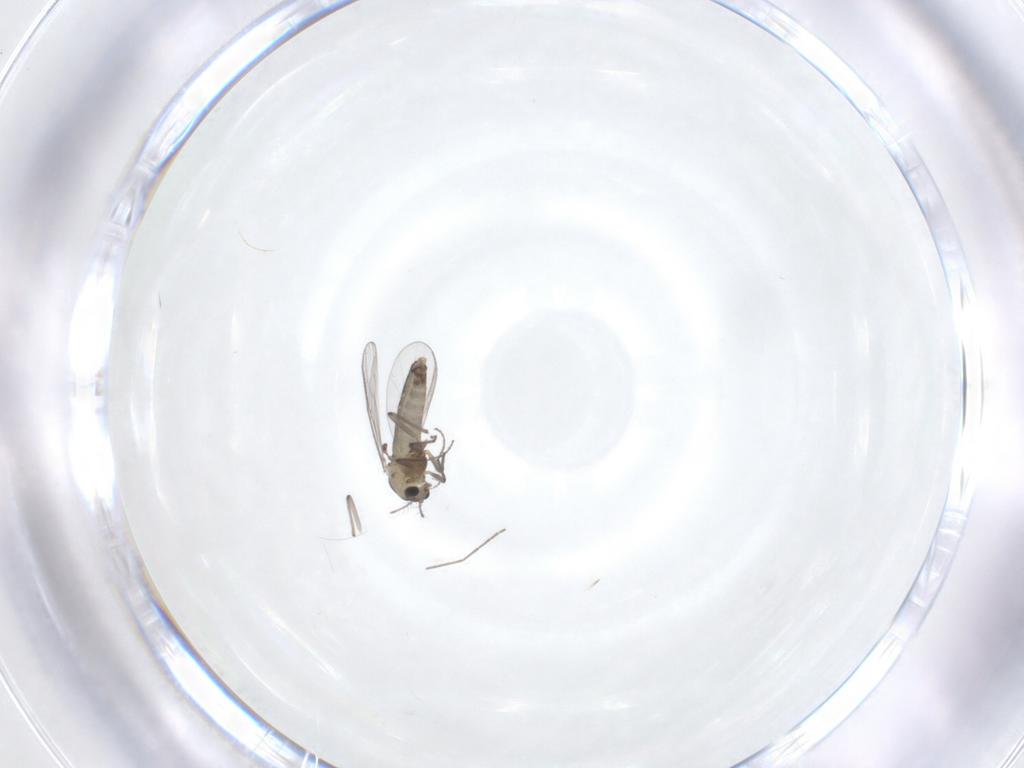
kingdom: Animalia
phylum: Arthropoda
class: Insecta
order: Diptera
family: Chironomidae
